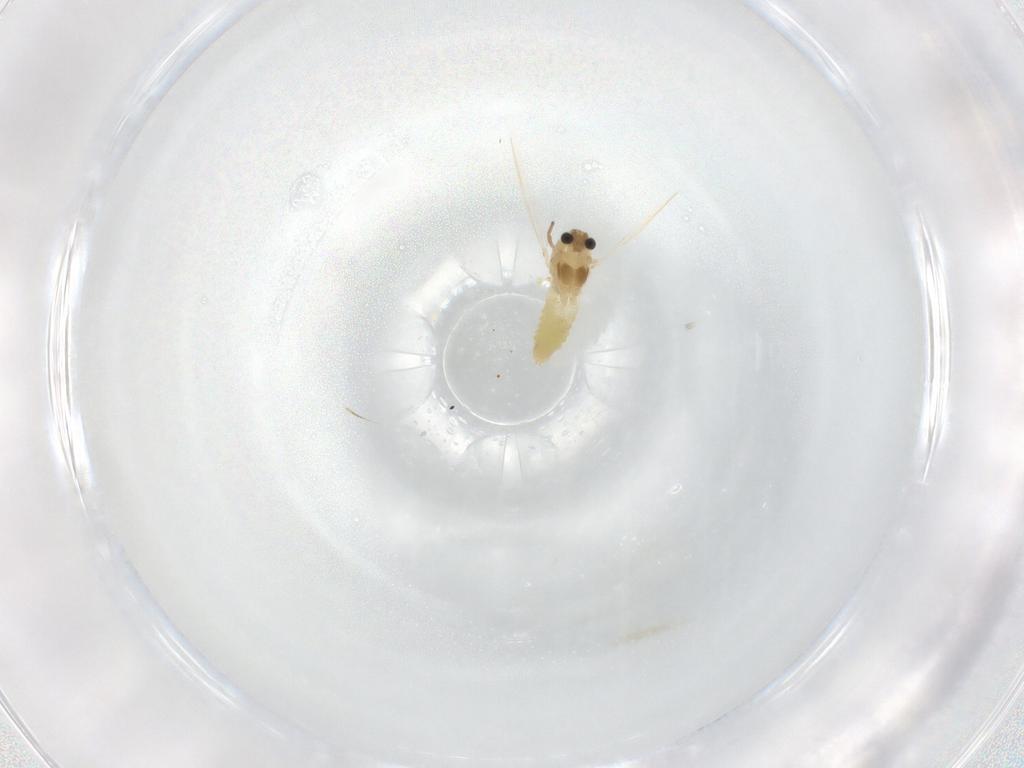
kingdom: Animalia
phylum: Arthropoda
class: Insecta
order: Diptera
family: Chironomidae
